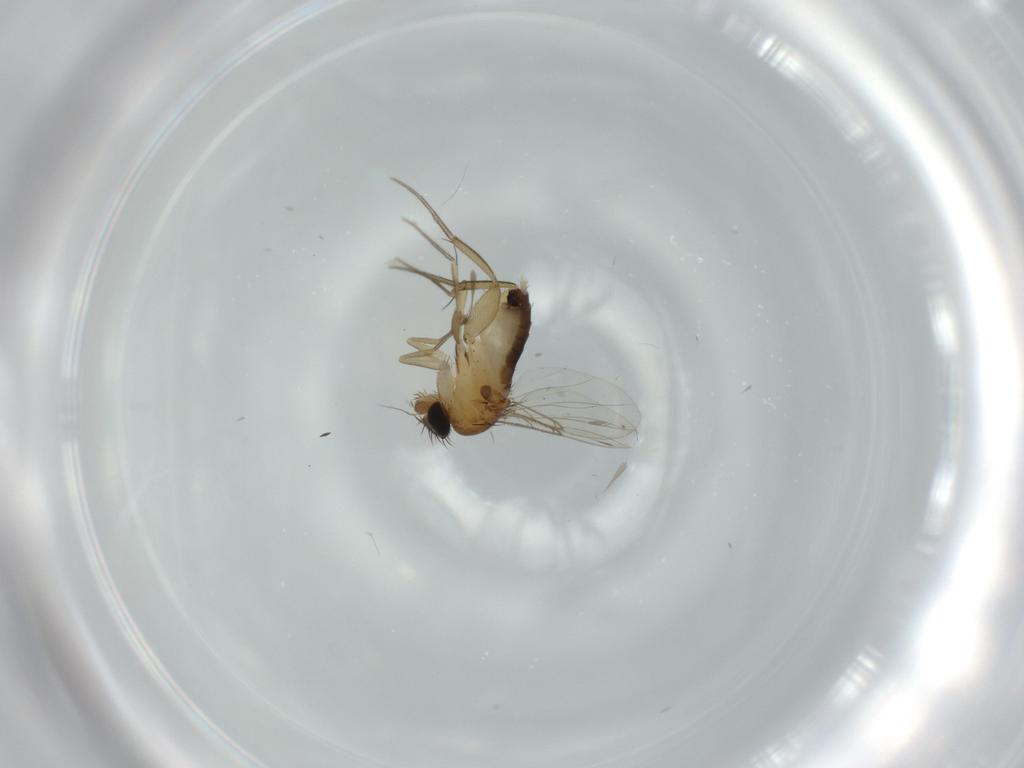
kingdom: Animalia
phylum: Arthropoda
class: Insecta
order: Diptera
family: Phoridae
